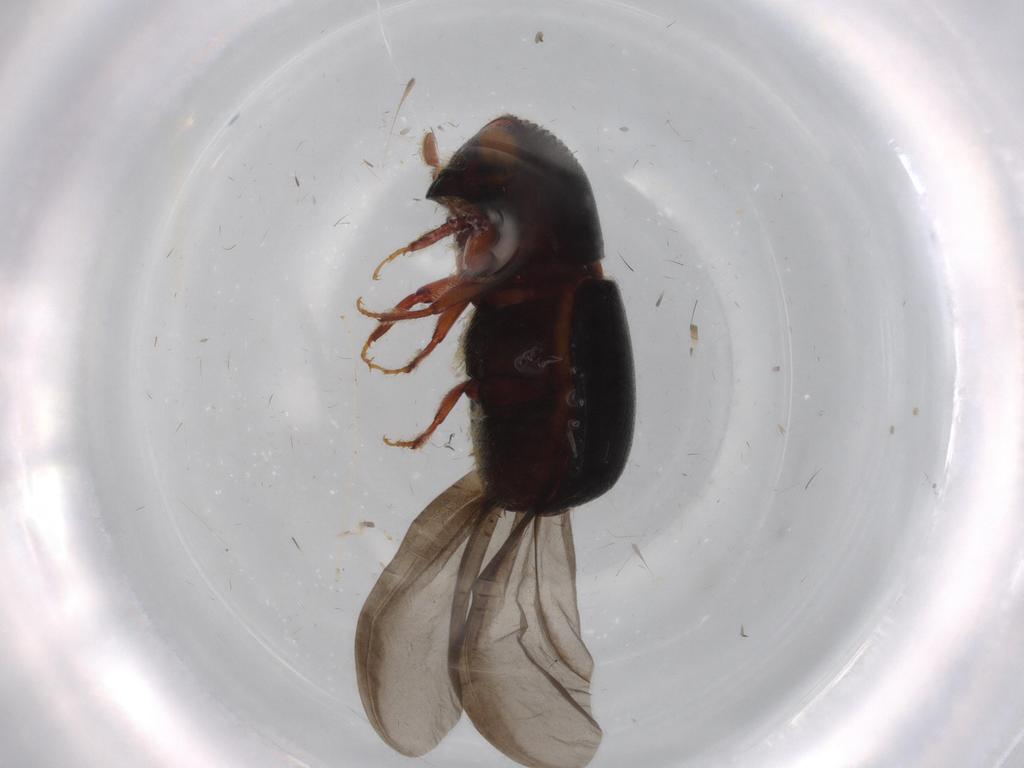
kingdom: Animalia
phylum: Arthropoda
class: Insecta
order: Coleoptera
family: Curculionidae
